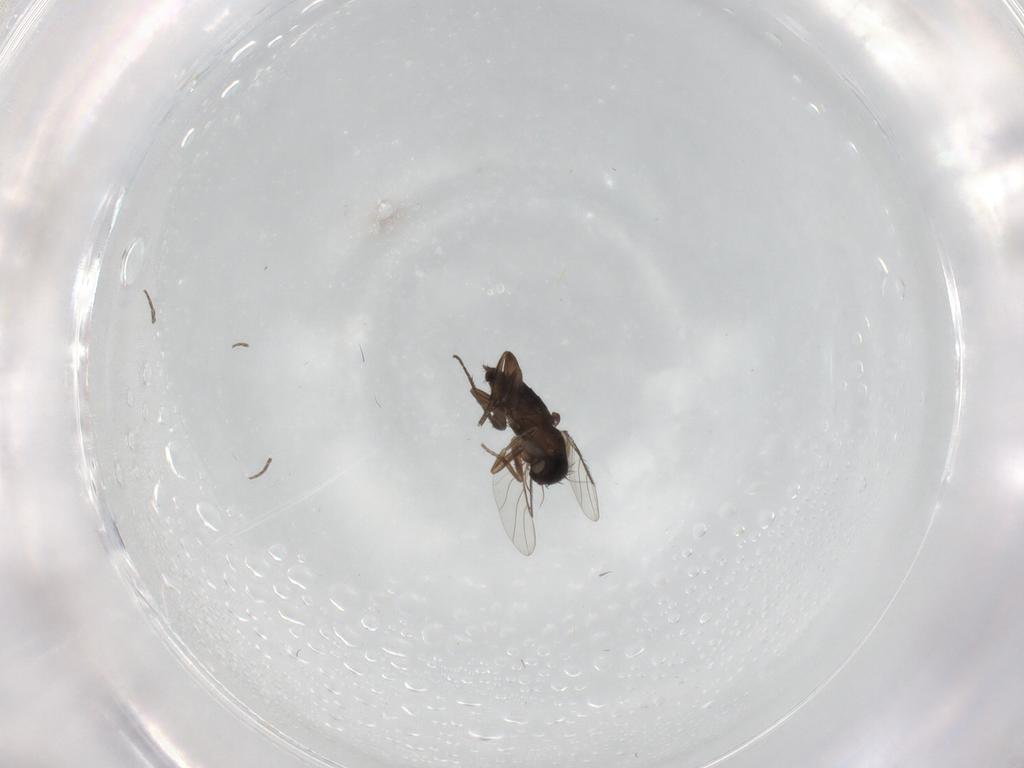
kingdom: Animalia
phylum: Arthropoda
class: Insecta
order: Diptera
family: Phoridae
